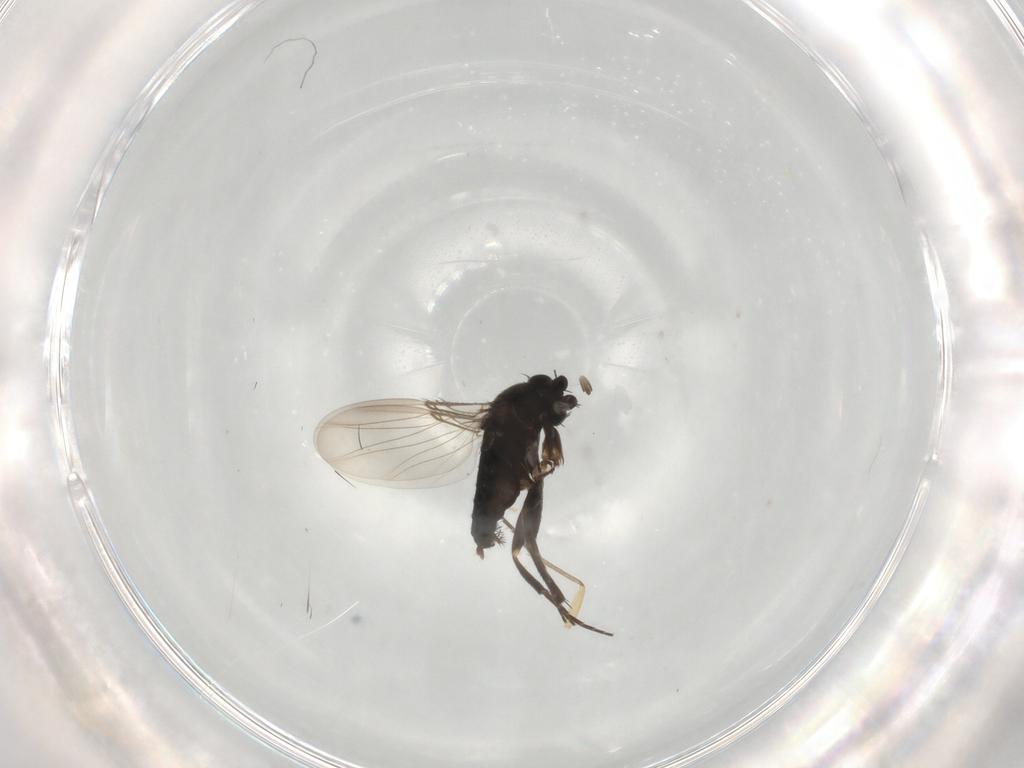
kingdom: Animalia
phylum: Arthropoda
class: Insecta
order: Diptera
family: Phoridae
